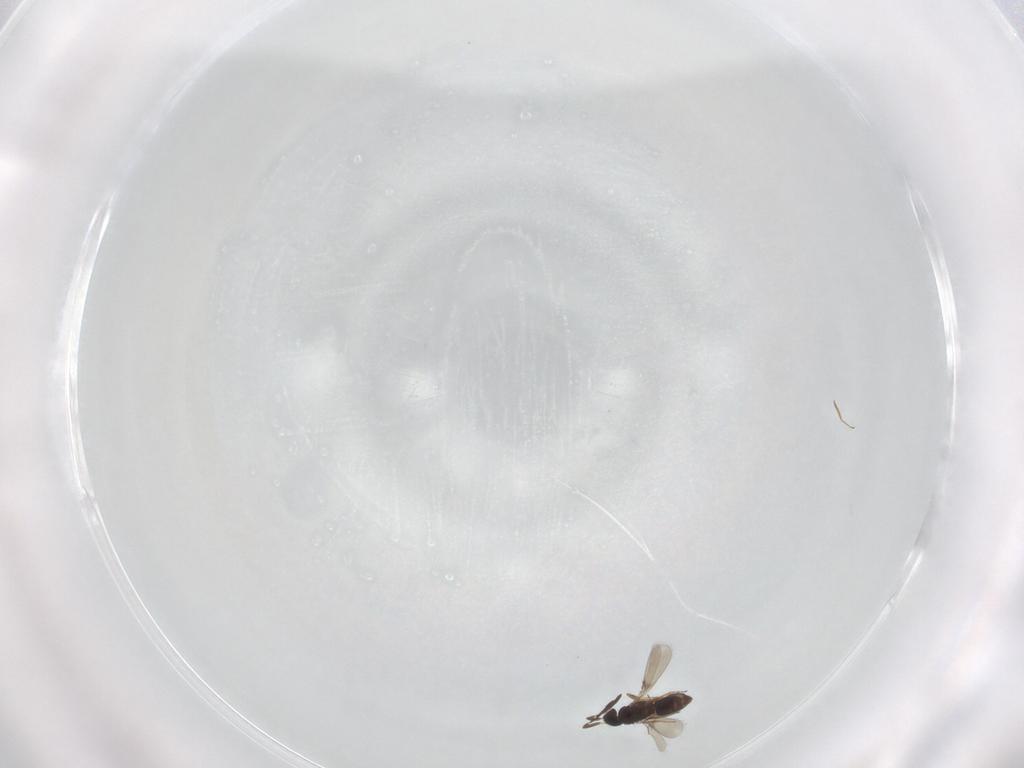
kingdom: Animalia
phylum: Arthropoda
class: Insecta
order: Hymenoptera
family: Mymaridae
